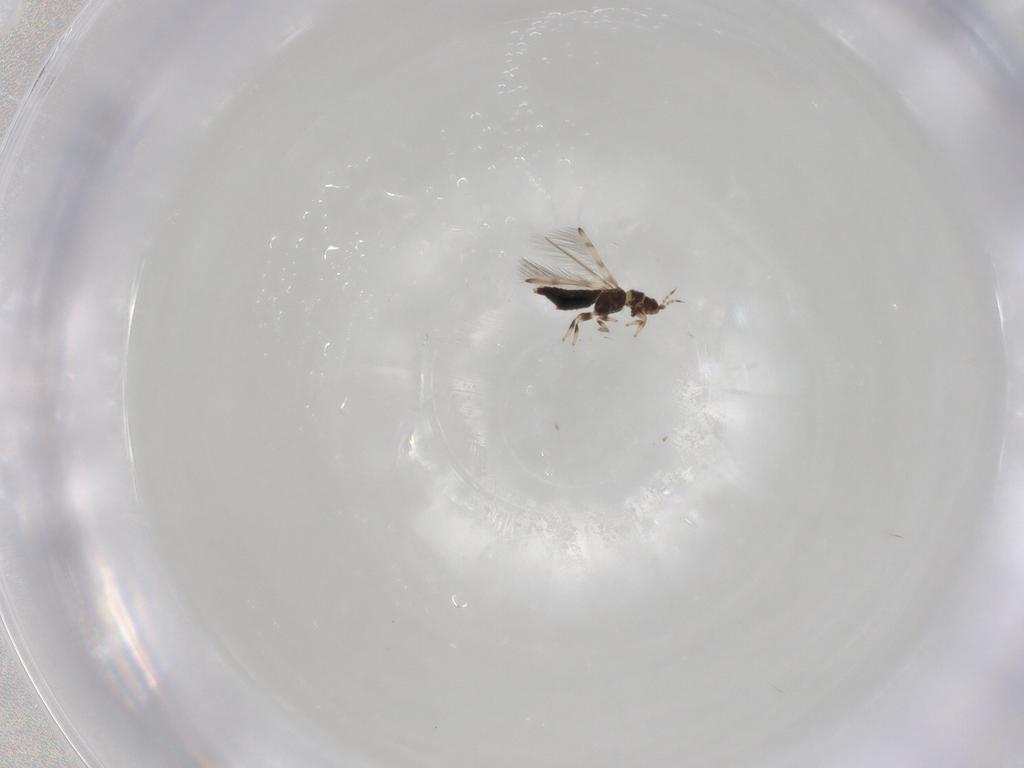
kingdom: Animalia
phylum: Arthropoda
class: Insecta
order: Thysanoptera
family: Thripidae
